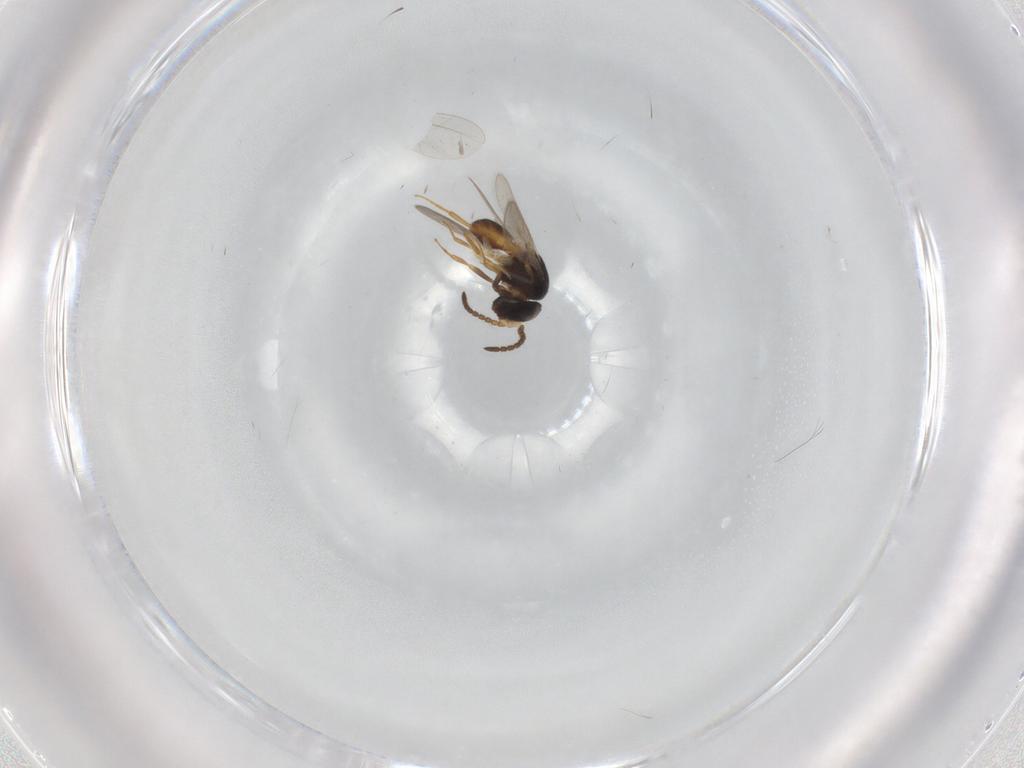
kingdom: Animalia
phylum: Arthropoda
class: Insecta
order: Hymenoptera
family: Scelionidae
